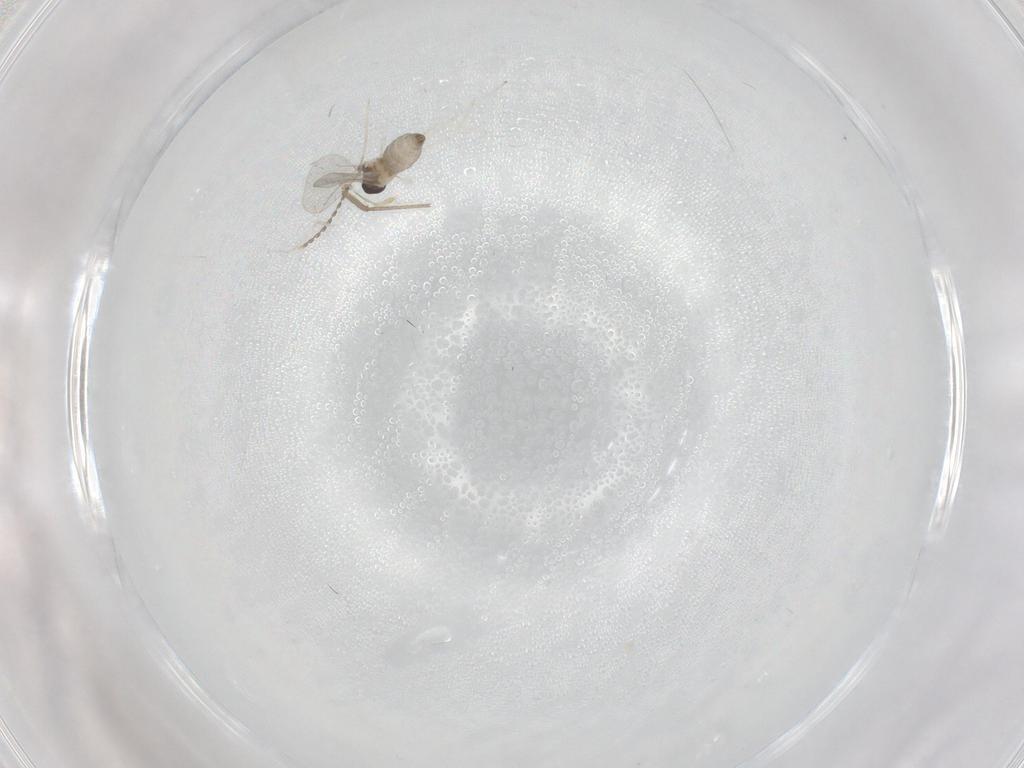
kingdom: Animalia
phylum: Arthropoda
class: Insecta
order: Diptera
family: Cecidomyiidae
